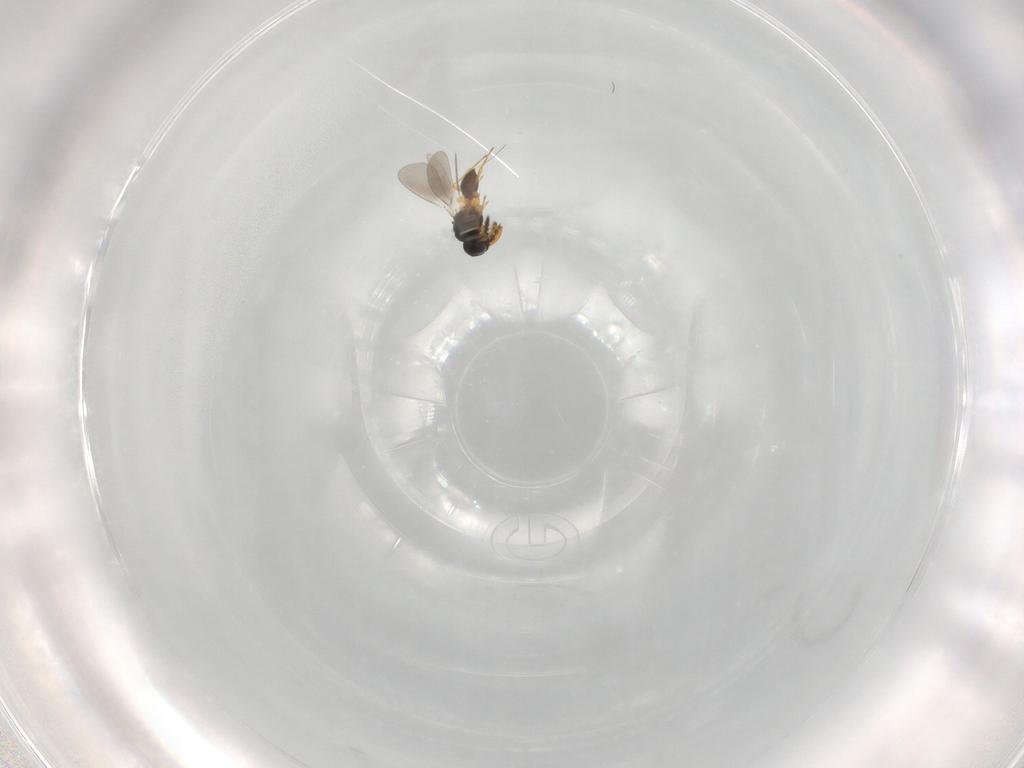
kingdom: Animalia
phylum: Arthropoda
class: Insecta
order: Hymenoptera
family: Platygastridae
